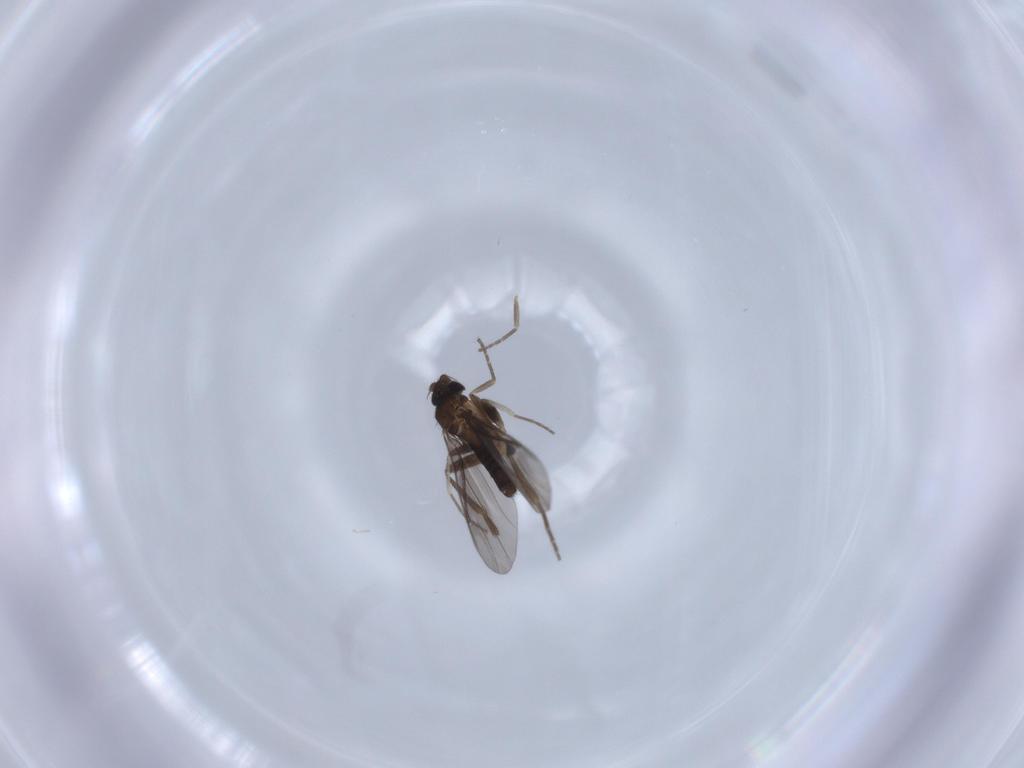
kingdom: Animalia
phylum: Arthropoda
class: Insecta
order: Diptera
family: Phoridae
